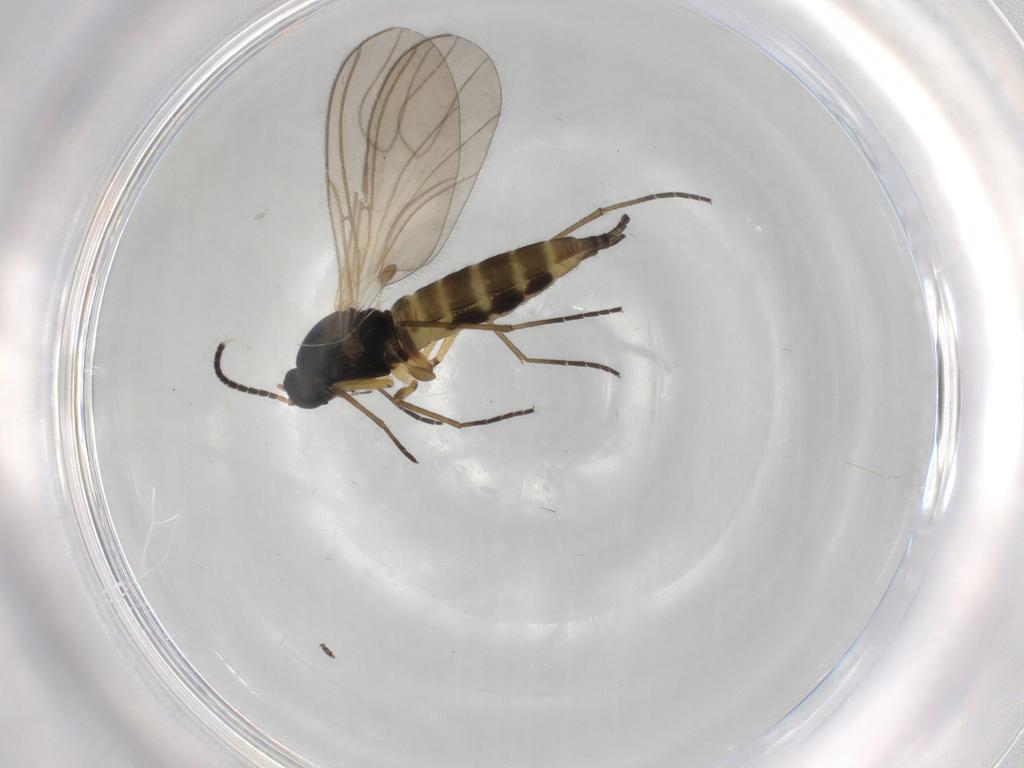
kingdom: Animalia
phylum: Arthropoda
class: Insecta
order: Diptera
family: Sciaridae
